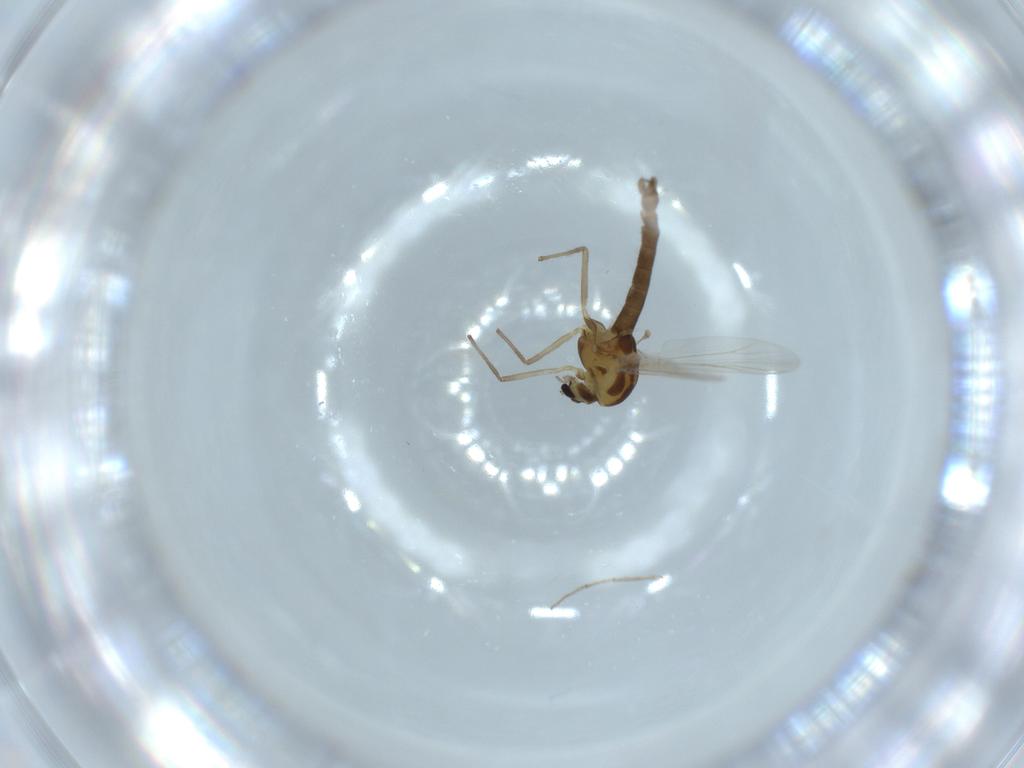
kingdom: Animalia
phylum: Arthropoda
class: Insecta
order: Diptera
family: Chironomidae
